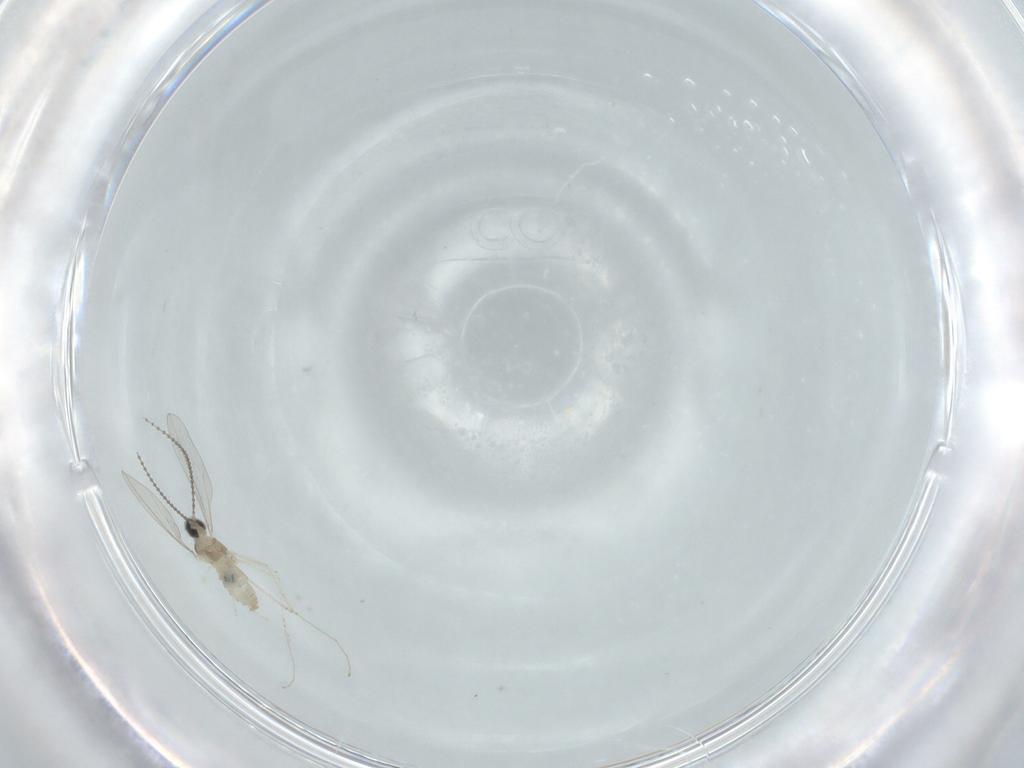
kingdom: Animalia
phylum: Arthropoda
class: Insecta
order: Diptera
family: Cecidomyiidae
